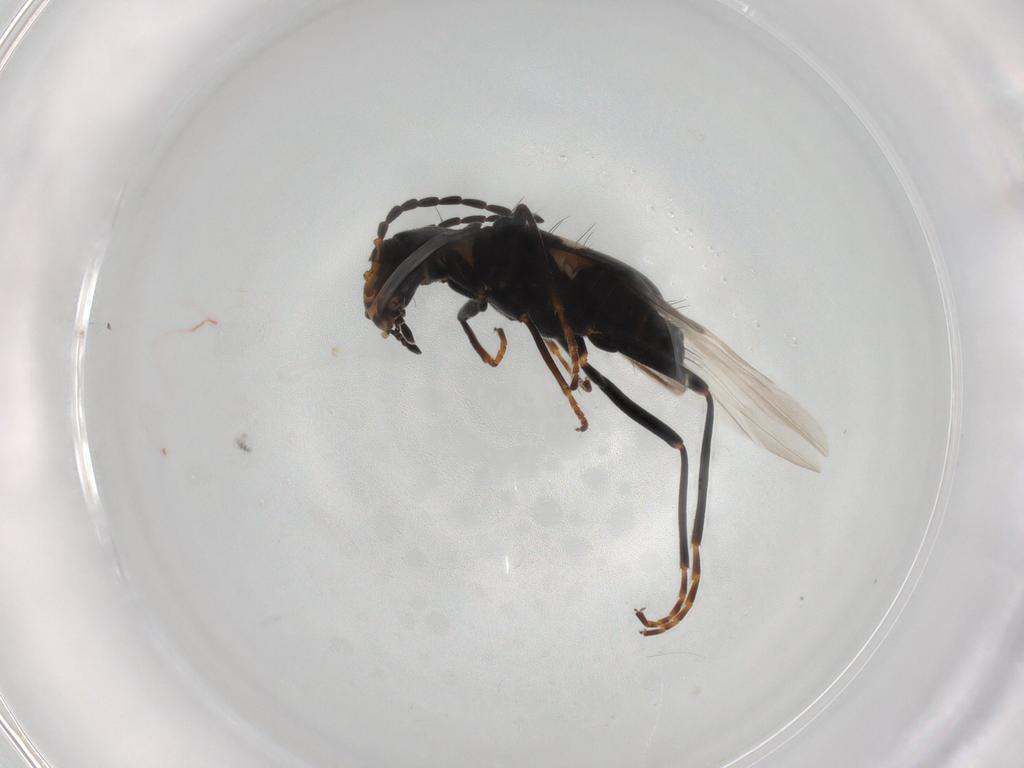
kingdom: Animalia
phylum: Arthropoda
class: Insecta
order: Coleoptera
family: Melyridae
